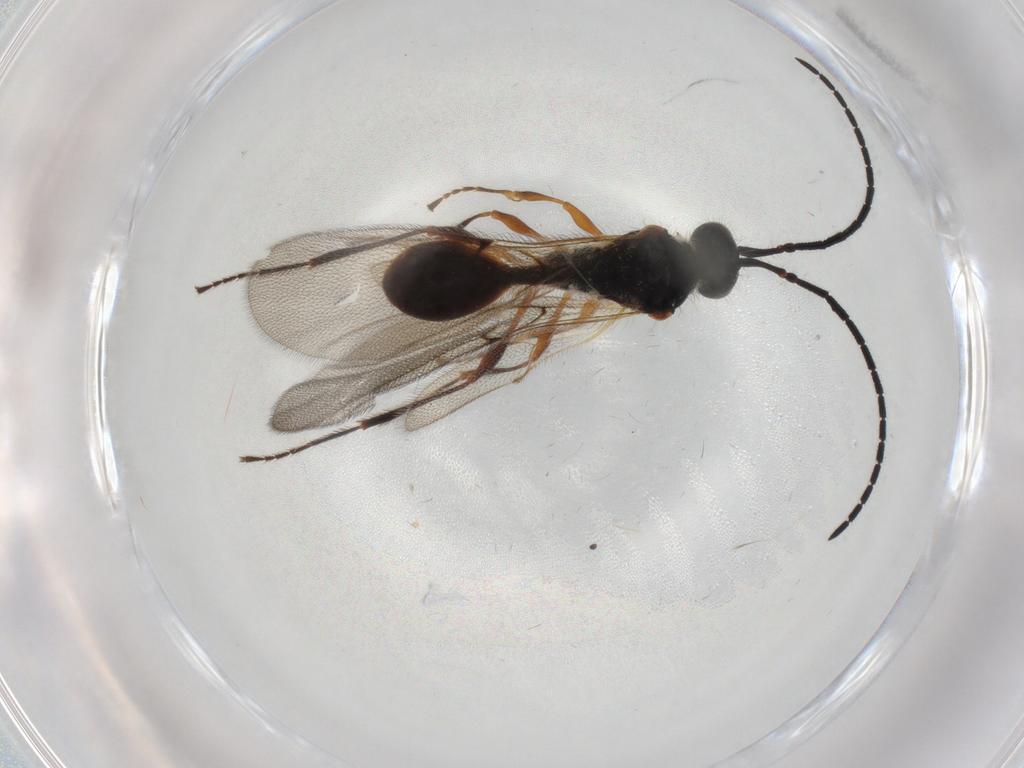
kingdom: Animalia
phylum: Arthropoda
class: Insecta
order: Hymenoptera
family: Diapriidae
